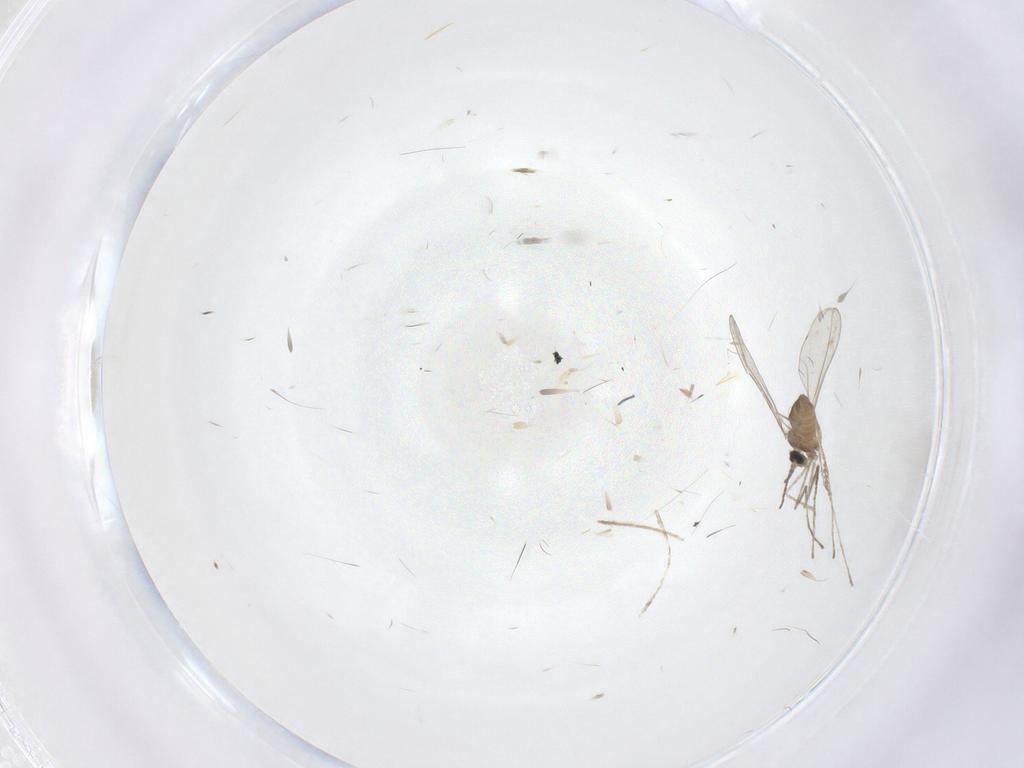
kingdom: Animalia
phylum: Arthropoda
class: Insecta
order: Diptera
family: Cecidomyiidae
